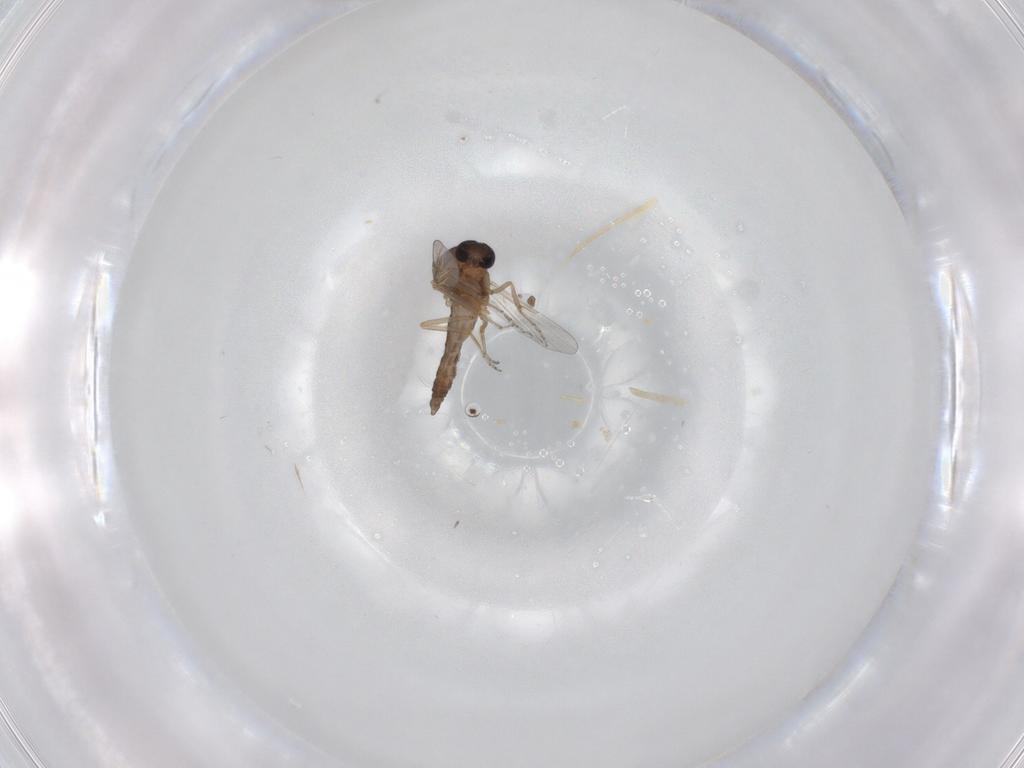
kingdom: Animalia
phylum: Arthropoda
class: Insecta
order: Diptera
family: Ceratopogonidae
